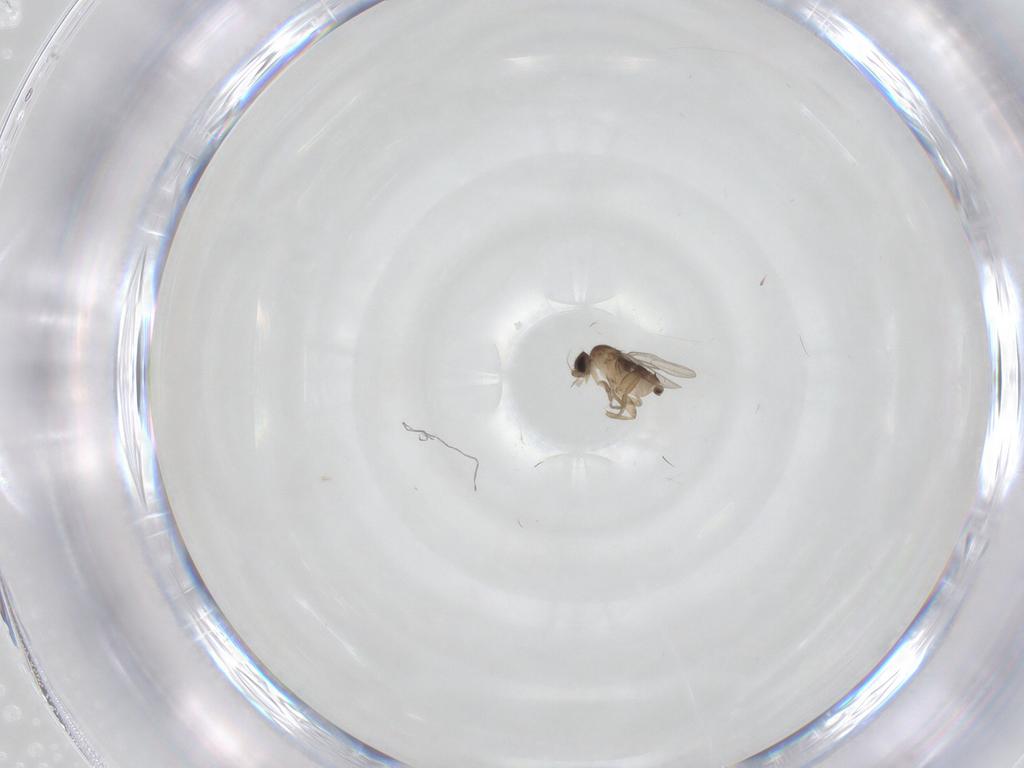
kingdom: Animalia
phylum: Arthropoda
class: Insecta
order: Diptera
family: Phoridae
